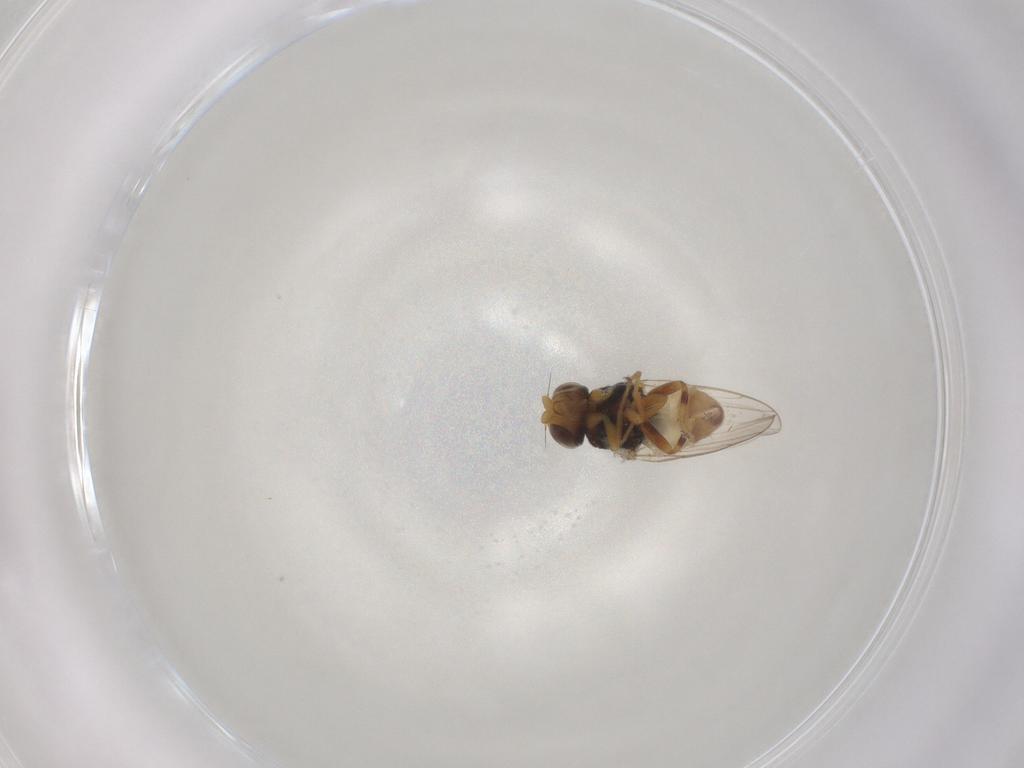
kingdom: Animalia
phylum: Arthropoda
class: Insecta
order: Diptera
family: Chloropidae
